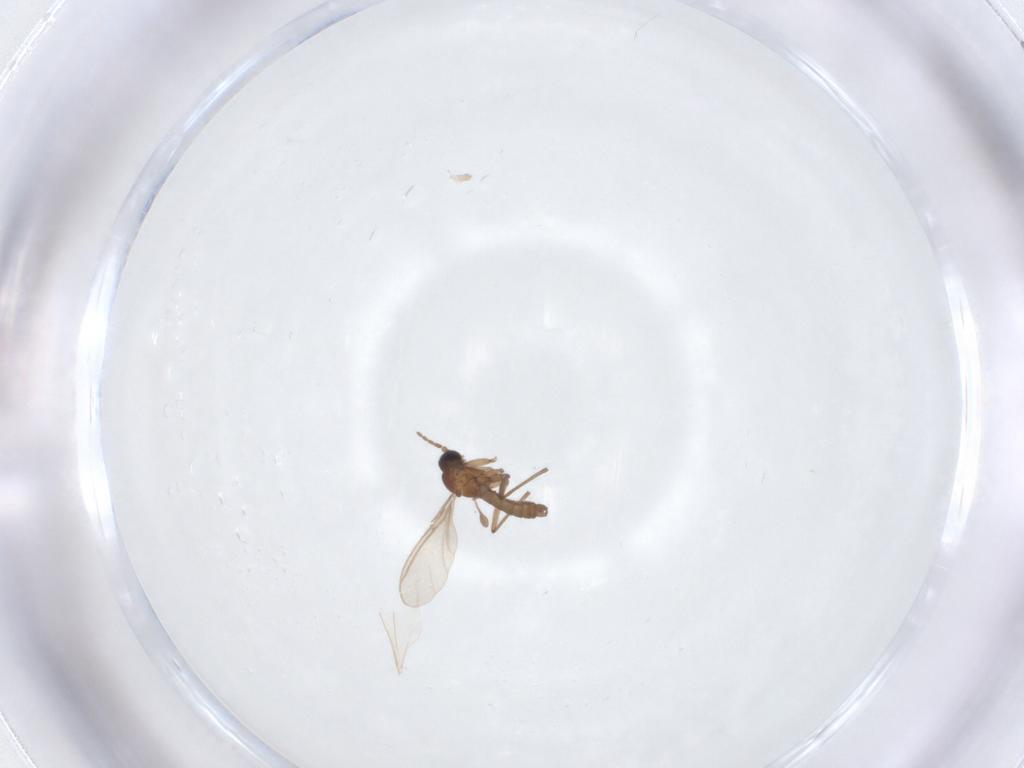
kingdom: Animalia
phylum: Arthropoda
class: Insecta
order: Diptera
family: Sciaridae
